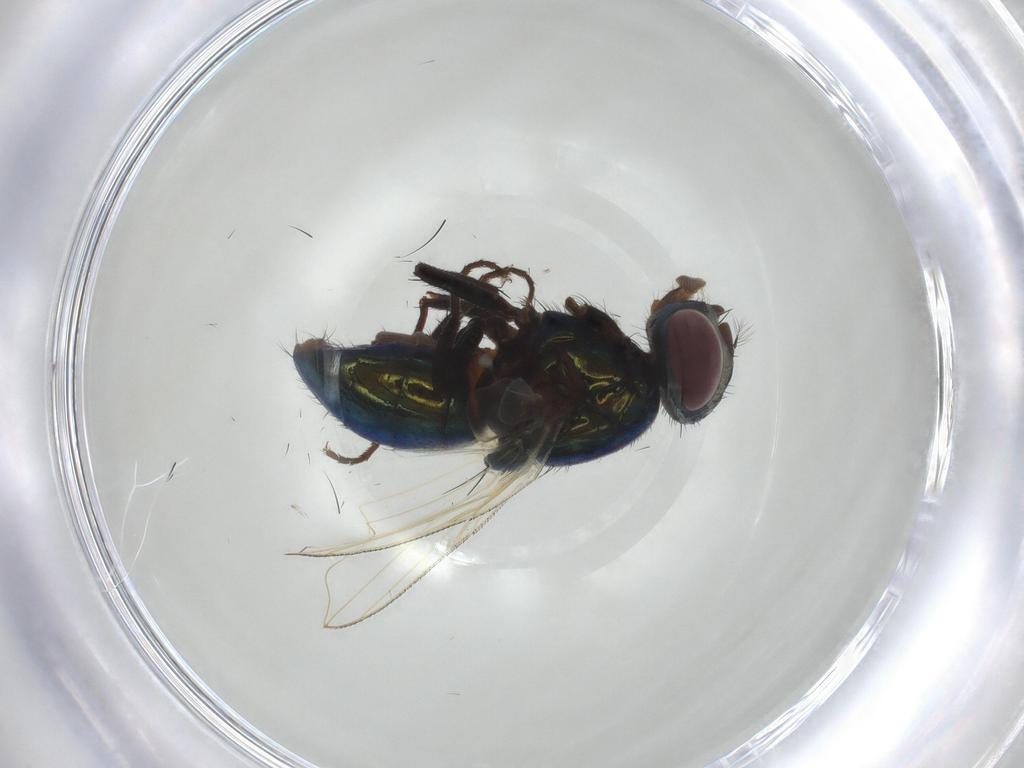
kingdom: Animalia
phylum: Arthropoda
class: Insecta
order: Diptera
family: Muscidae
